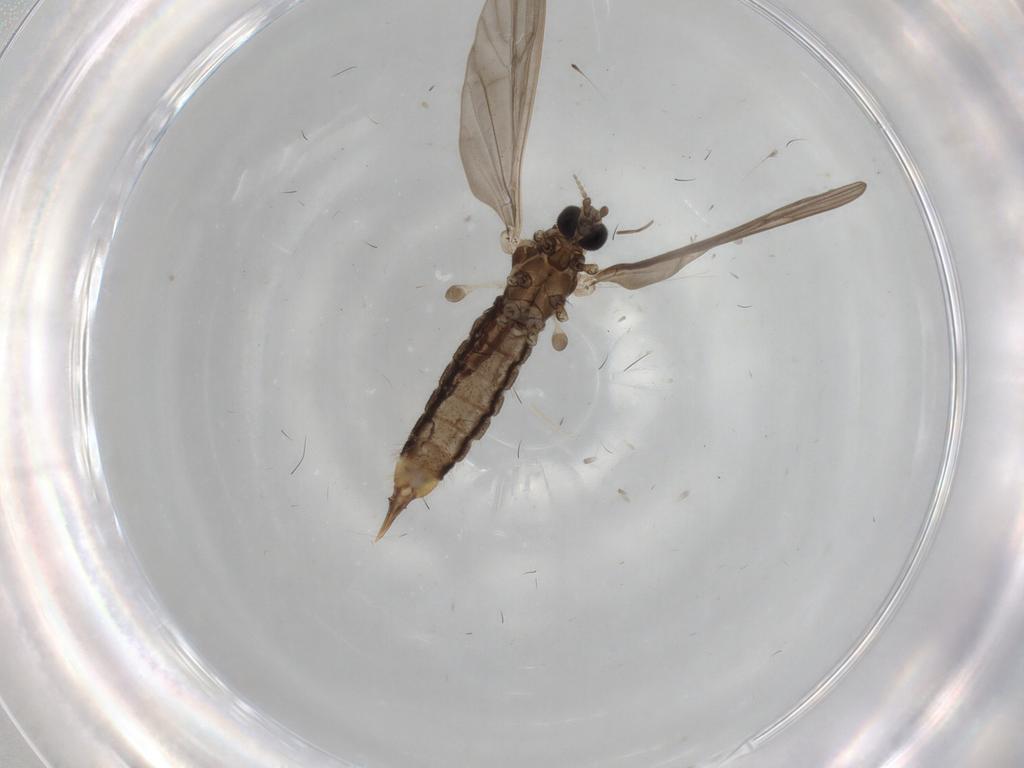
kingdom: Animalia
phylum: Arthropoda
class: Insecta
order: Diptera
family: Limoniidae
